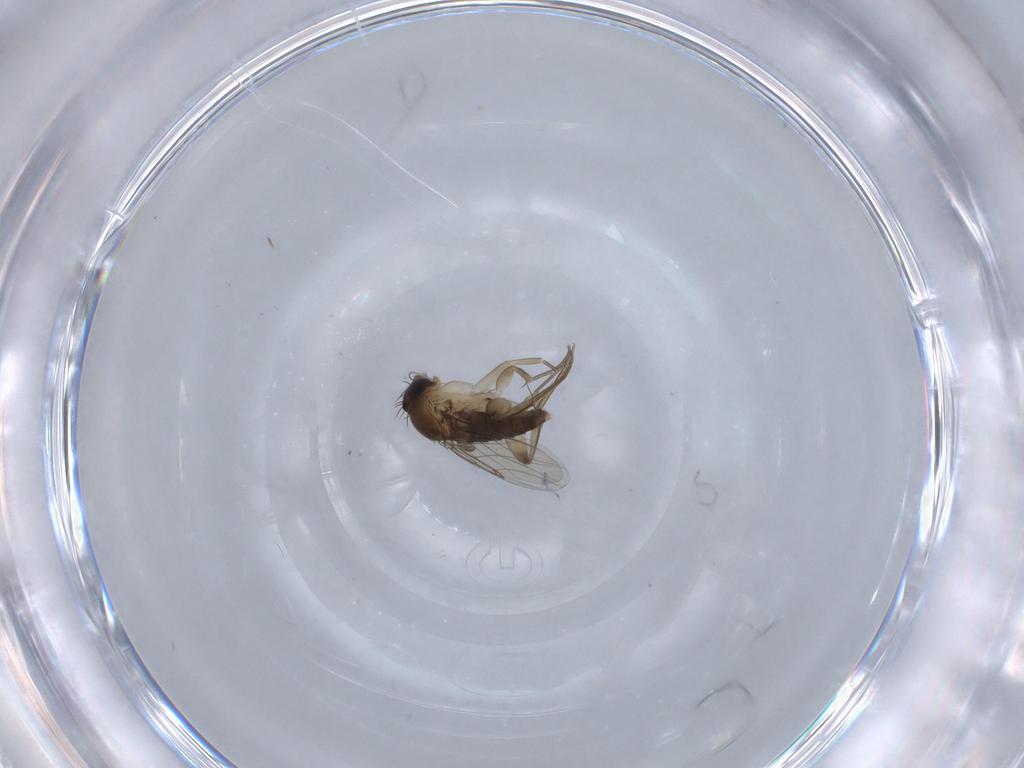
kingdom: Animalia
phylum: Arthropoda
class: Insecta
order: Diptera
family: Phoridae
